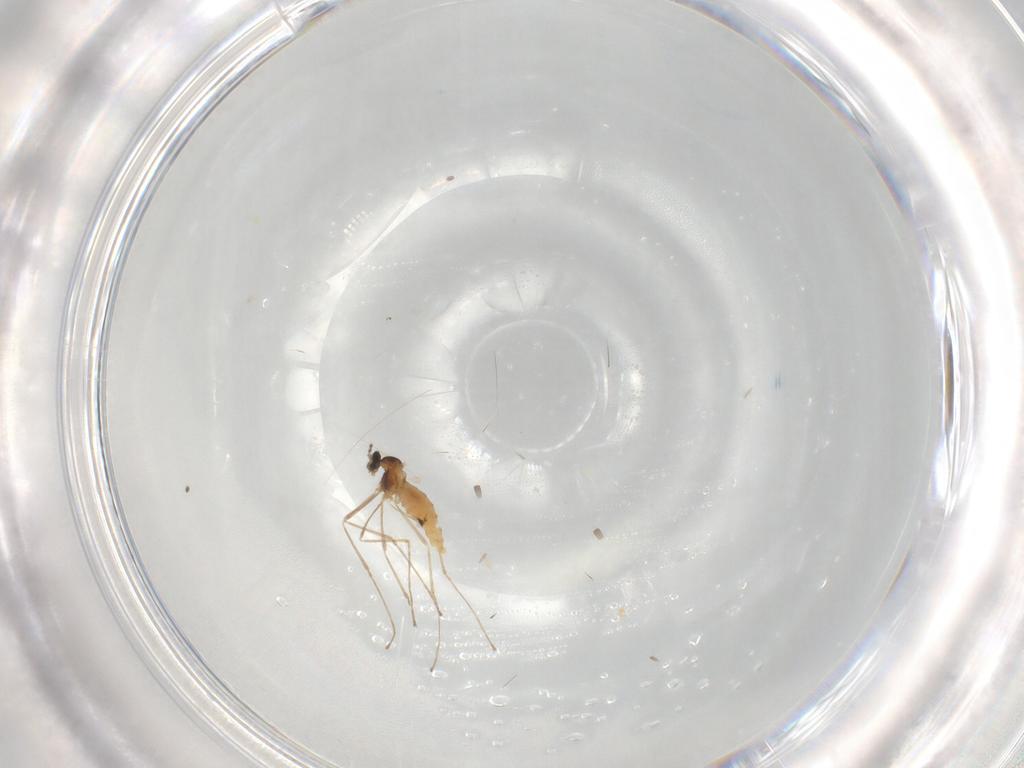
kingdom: Animalia
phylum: Arthropoda
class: Insecta
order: Diptera
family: Cecidomyiidae
